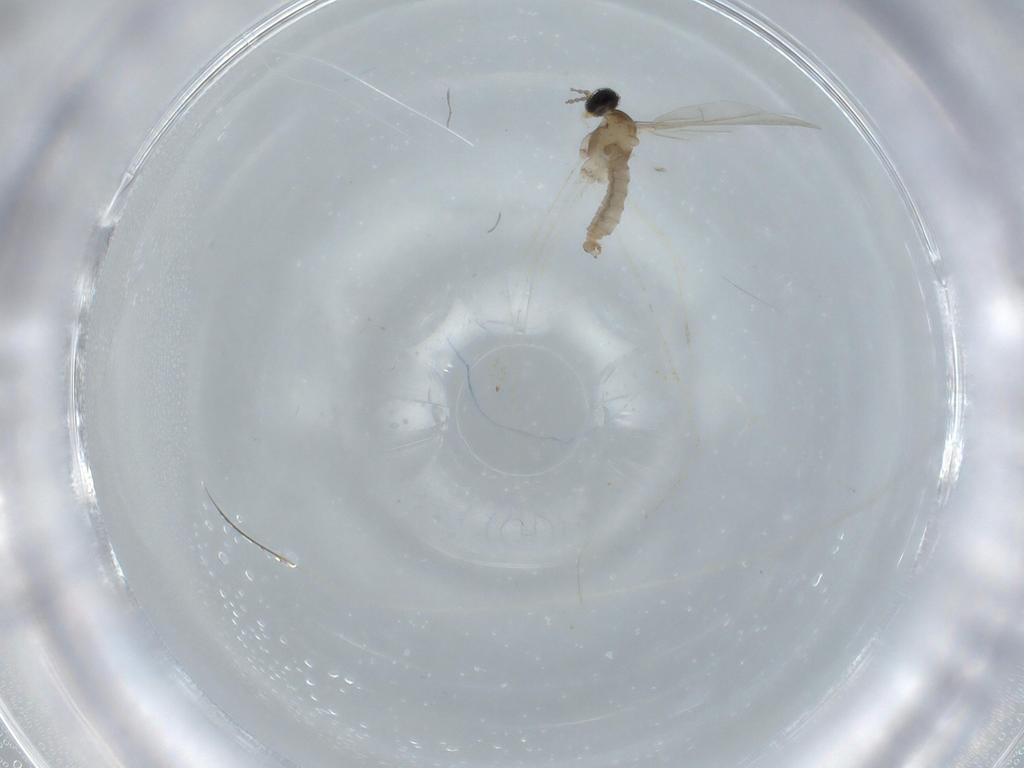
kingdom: Animalia
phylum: Arthropoda
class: Insecta
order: Diptera
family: Cecidomyiidae
